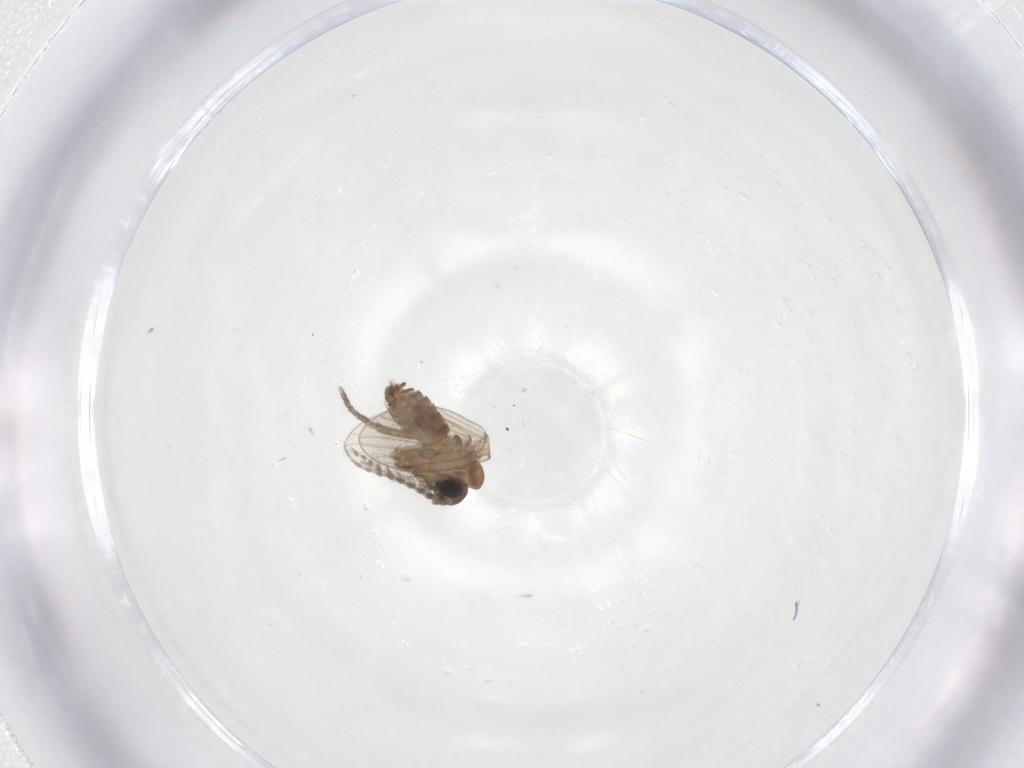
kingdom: Animalia
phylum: Arthropoda
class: Insecta
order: Diptera
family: Psychodidae
